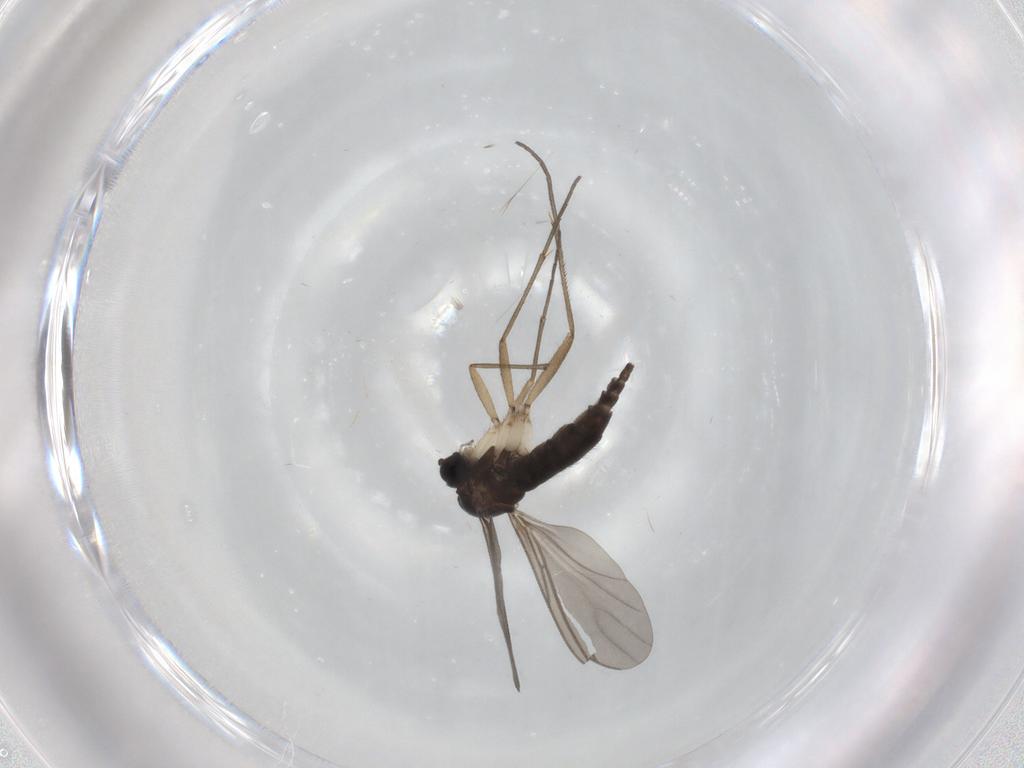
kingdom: Animalia
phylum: Arthropoda
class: Insecta
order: Diptera
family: Sciaridae
